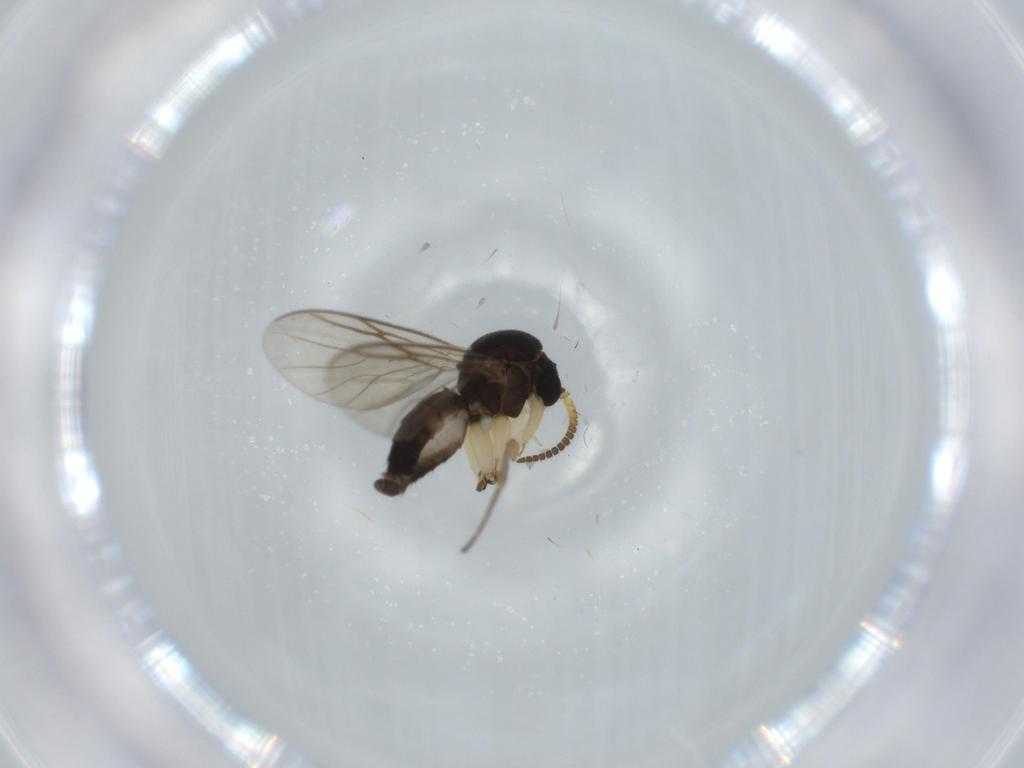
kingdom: Animalia
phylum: Arthropoda
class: Insecta
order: Diptera
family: Mycetophilidae
